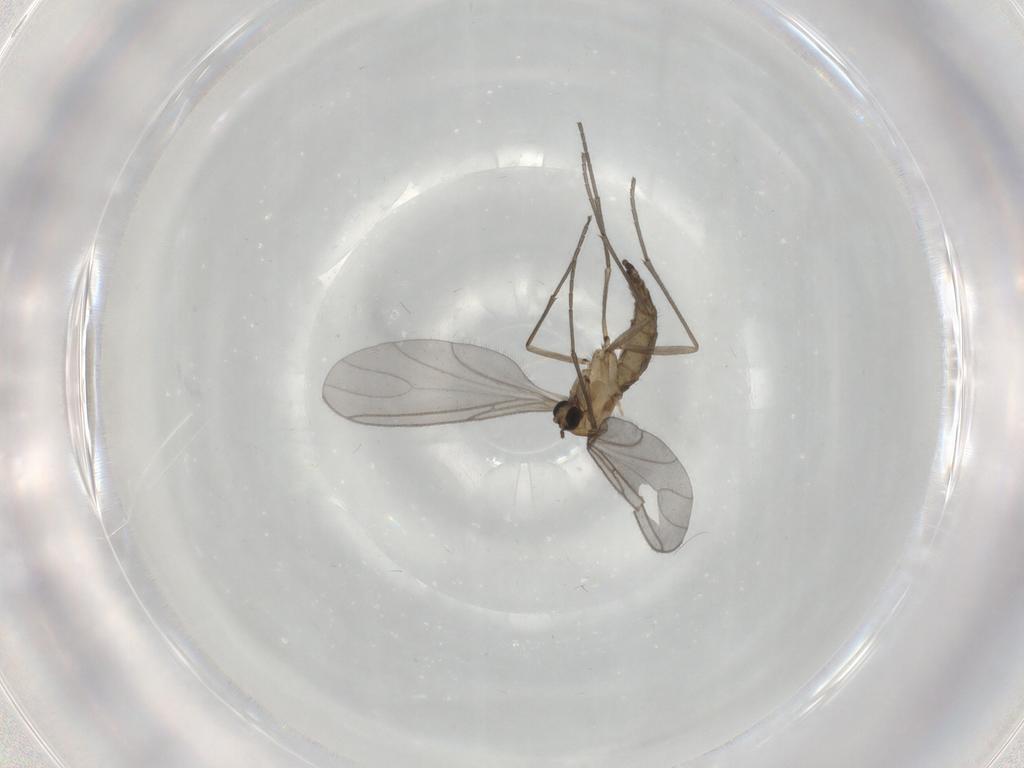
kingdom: Animalia
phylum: Arthropoda
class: Insecta
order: Diptera
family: Sciaridae
